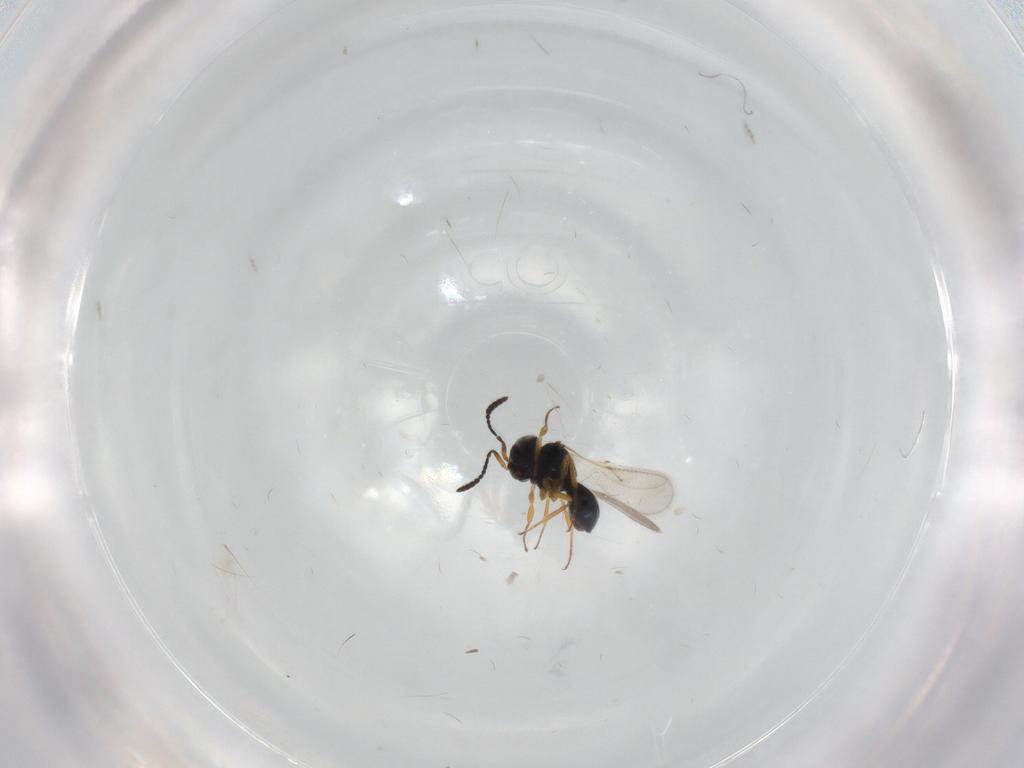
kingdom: Animalia
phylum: Arthropoda
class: Insecta
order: Hymenoptera
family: Scelionidae
